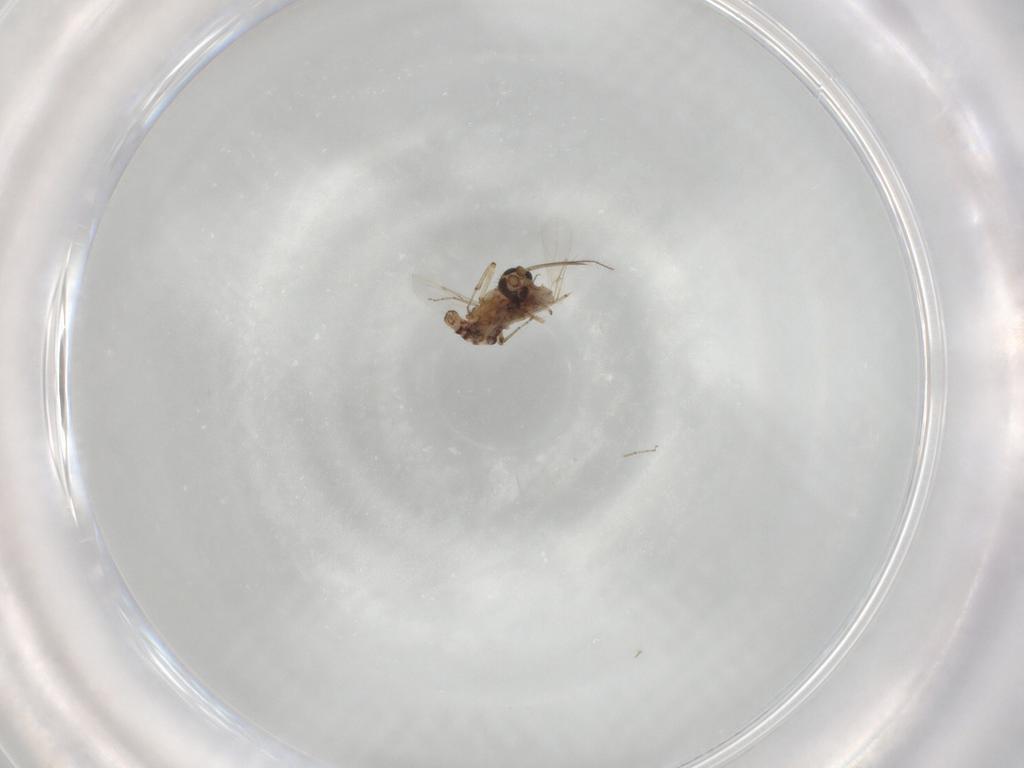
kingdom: Animalia
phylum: Arthropoda
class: Insecta
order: Diptera
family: Ceratopogonidae
